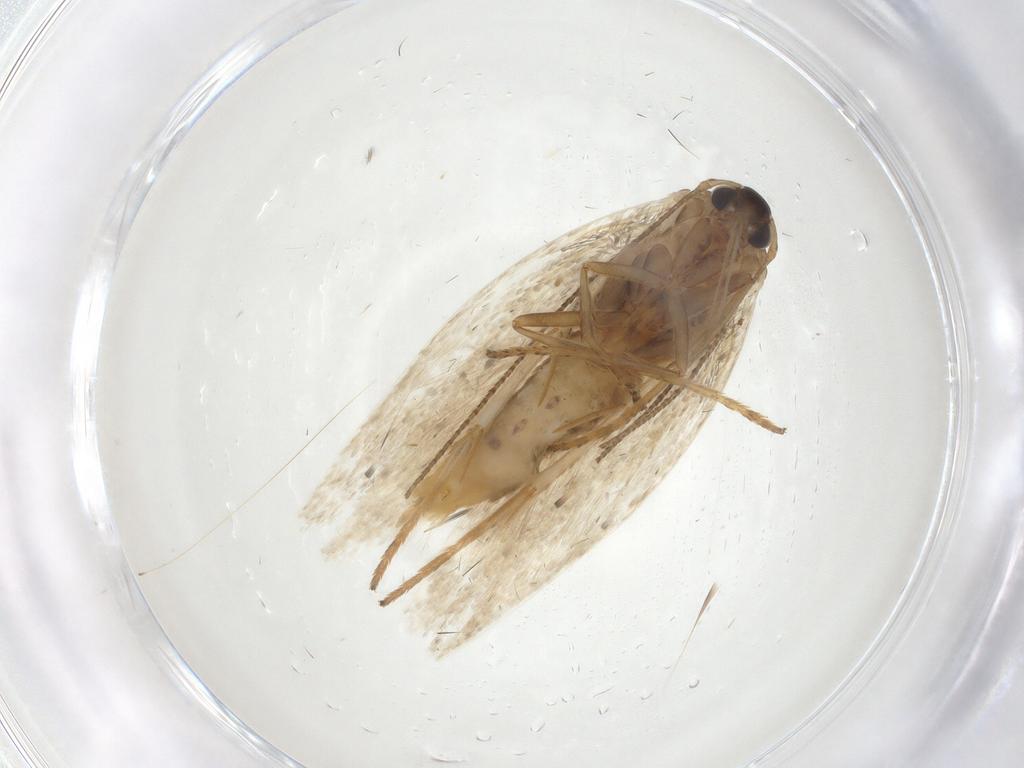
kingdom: Animalia
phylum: Arthropoda
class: Insecta
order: Lepidoptera
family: Erebidae
